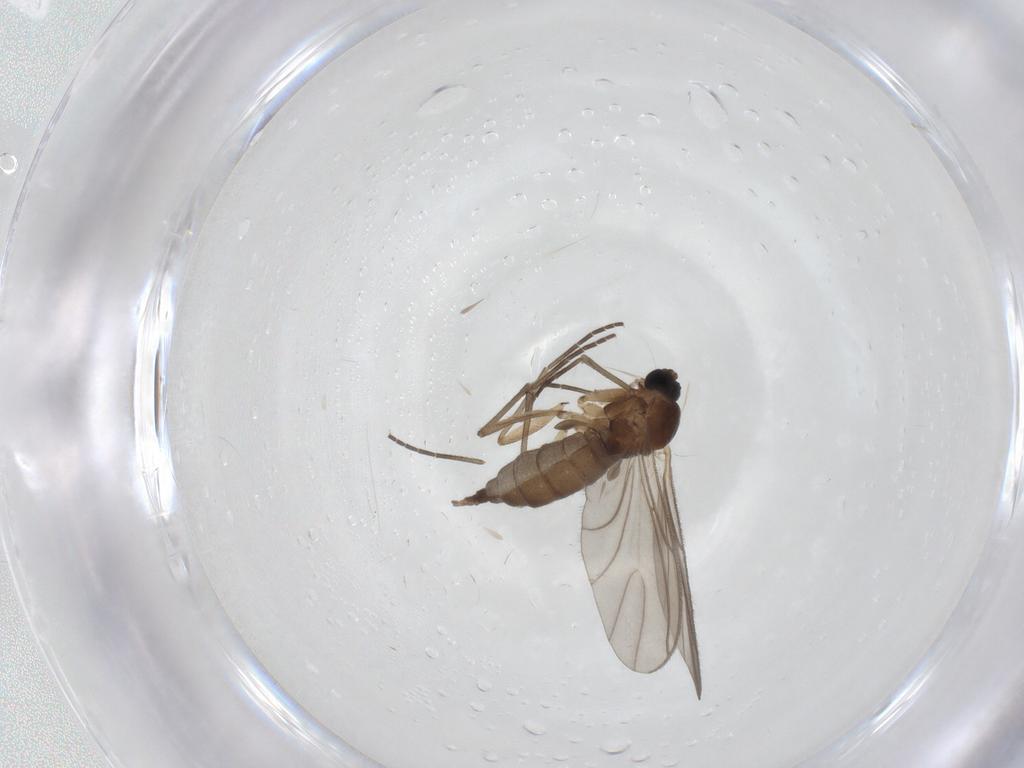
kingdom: Animalia
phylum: Arthropoda
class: Insecta
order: Diptera
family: Sciaridae
